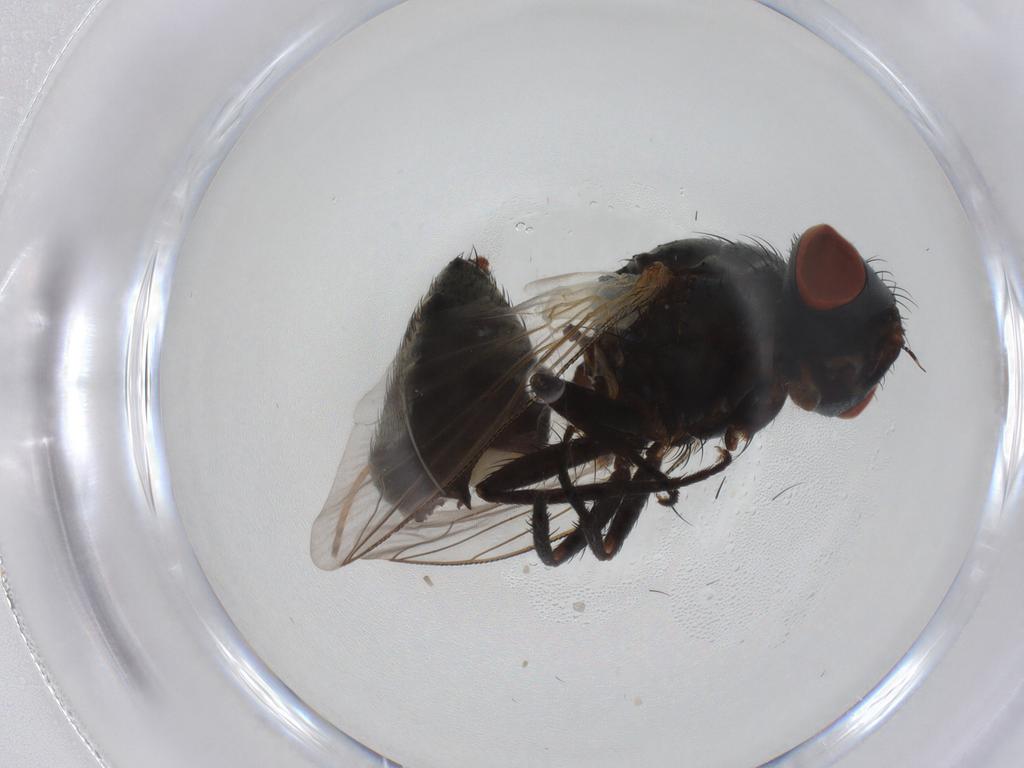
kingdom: Animalia
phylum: Arthropoda
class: Insecta
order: Diptera
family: Sarcophagidae
